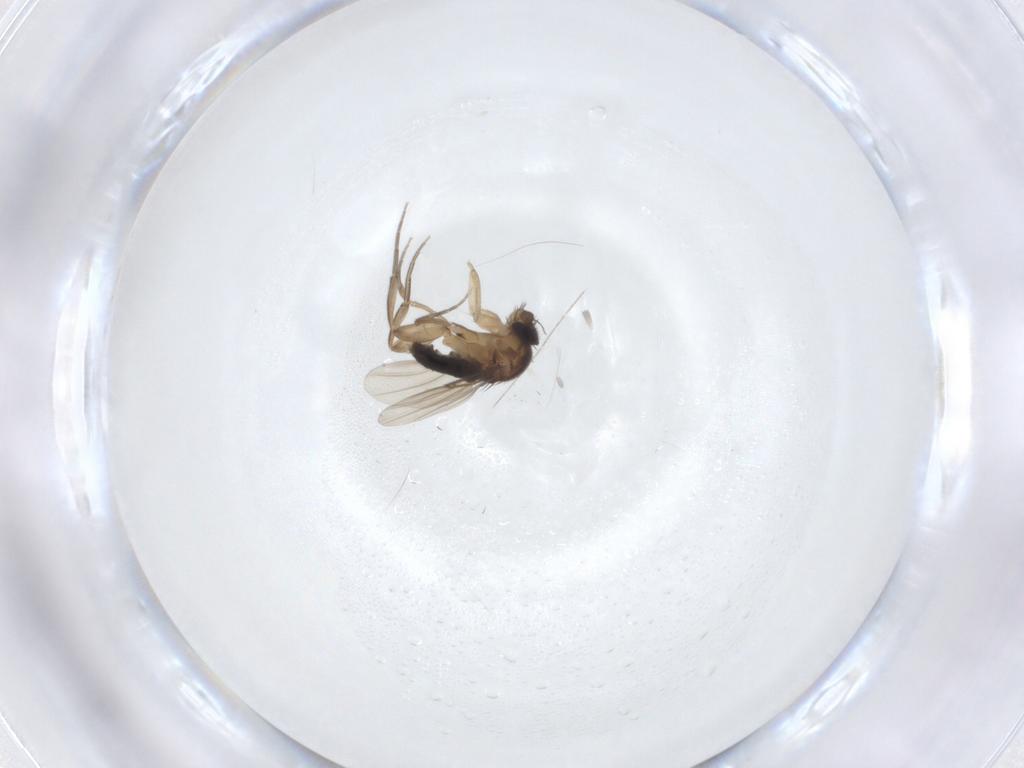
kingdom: Animalia
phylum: Arthropoda
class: Insecta
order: Diptera
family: Phoridae
